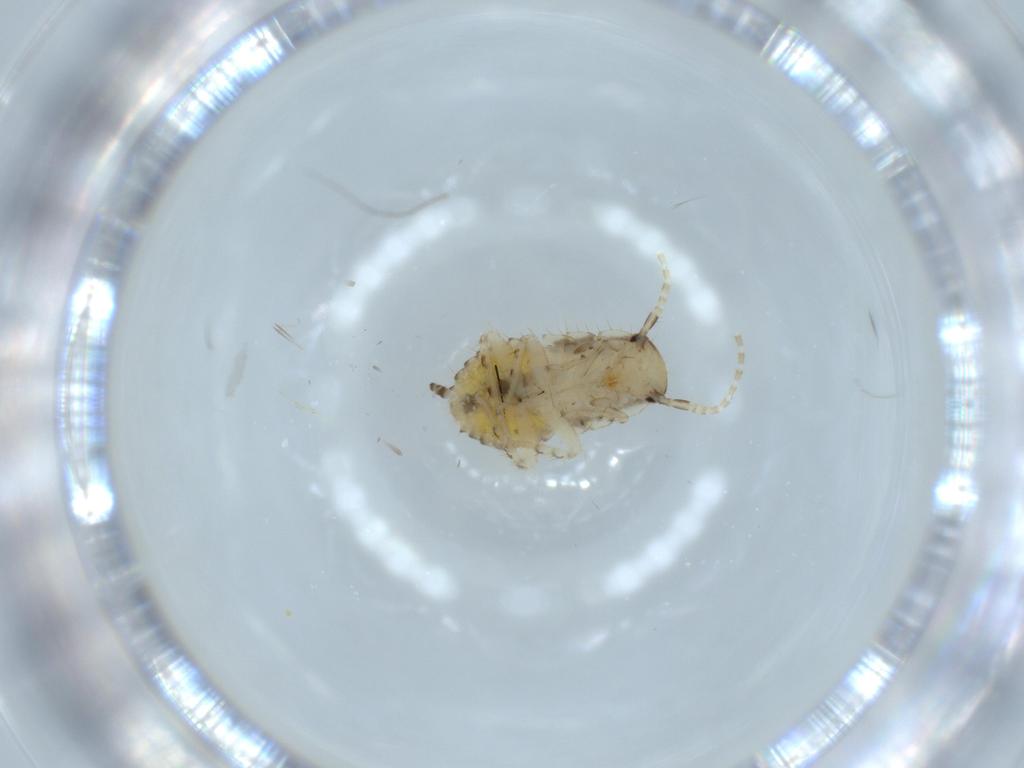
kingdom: Animalia
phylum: Arthropoda
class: Insecta
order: Blattodea
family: Ectobiidae
